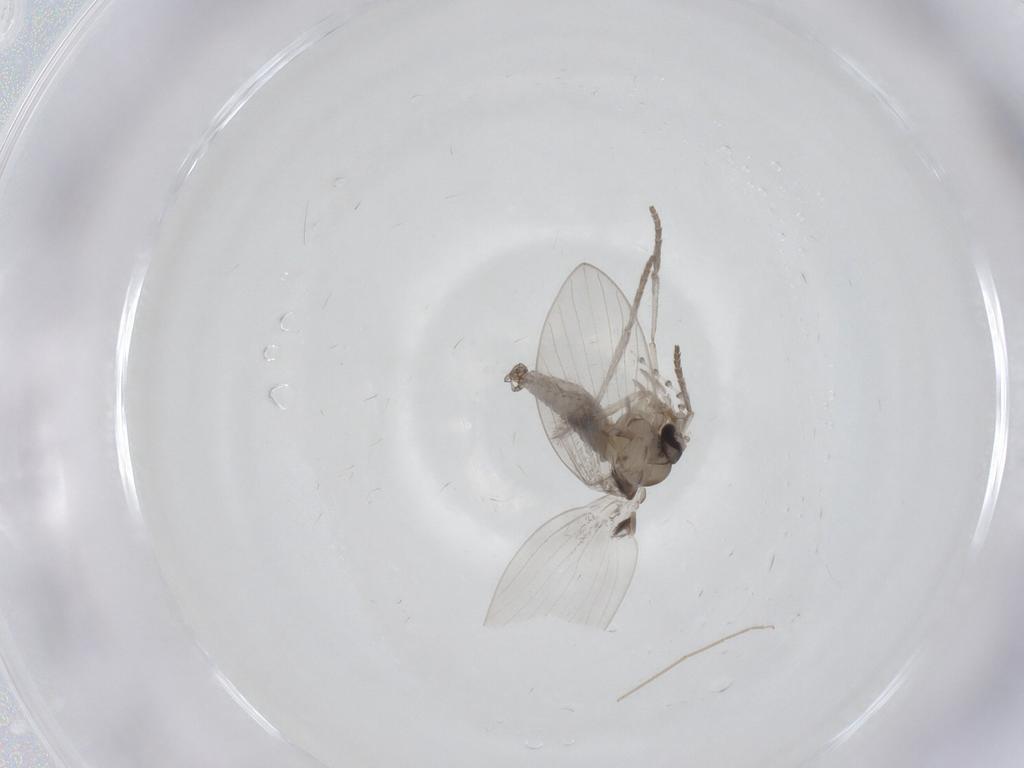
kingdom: Animalia
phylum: Arthropoda
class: Insecta
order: Diptera
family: Psychodidae
